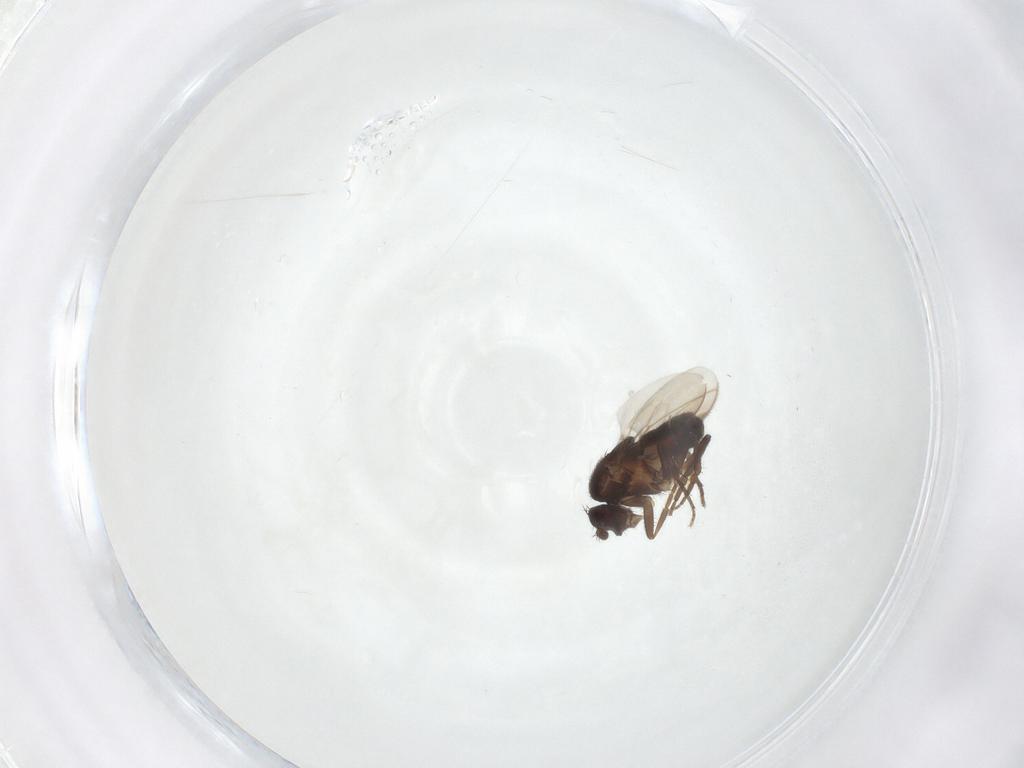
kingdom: Animalia
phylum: Arthropoda
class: Insecta
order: Diptera
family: Sphaeroceridae
